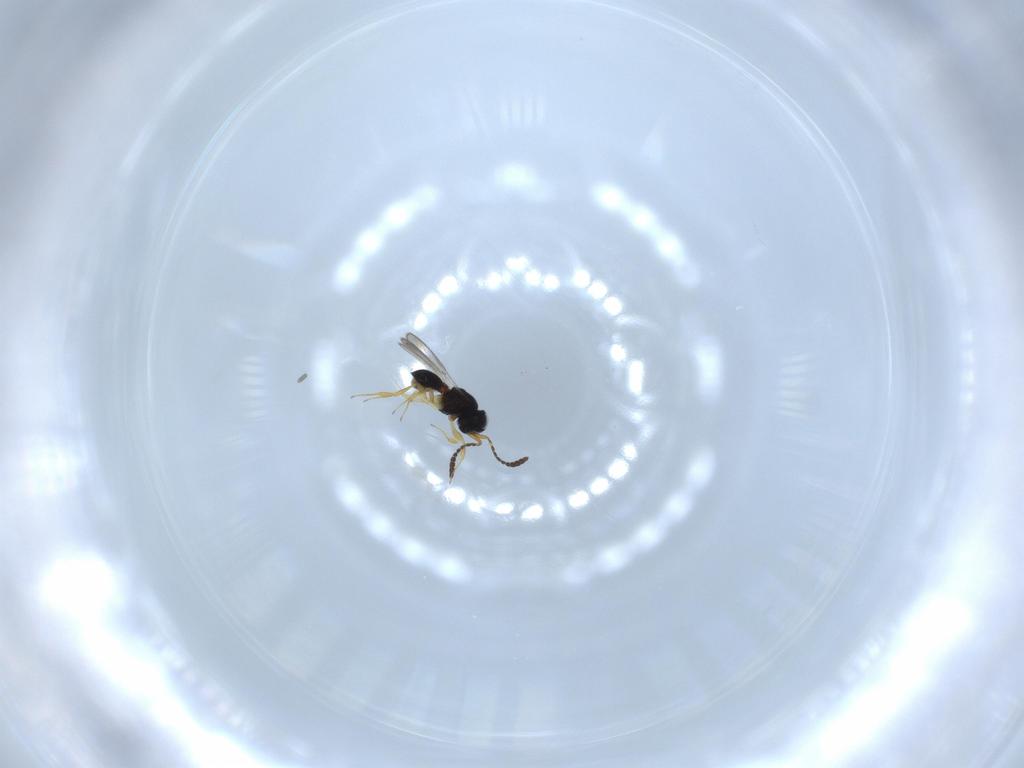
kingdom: Animalia
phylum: Arthropoda
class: Insecta
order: Hymenoptera
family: Scelionidae
